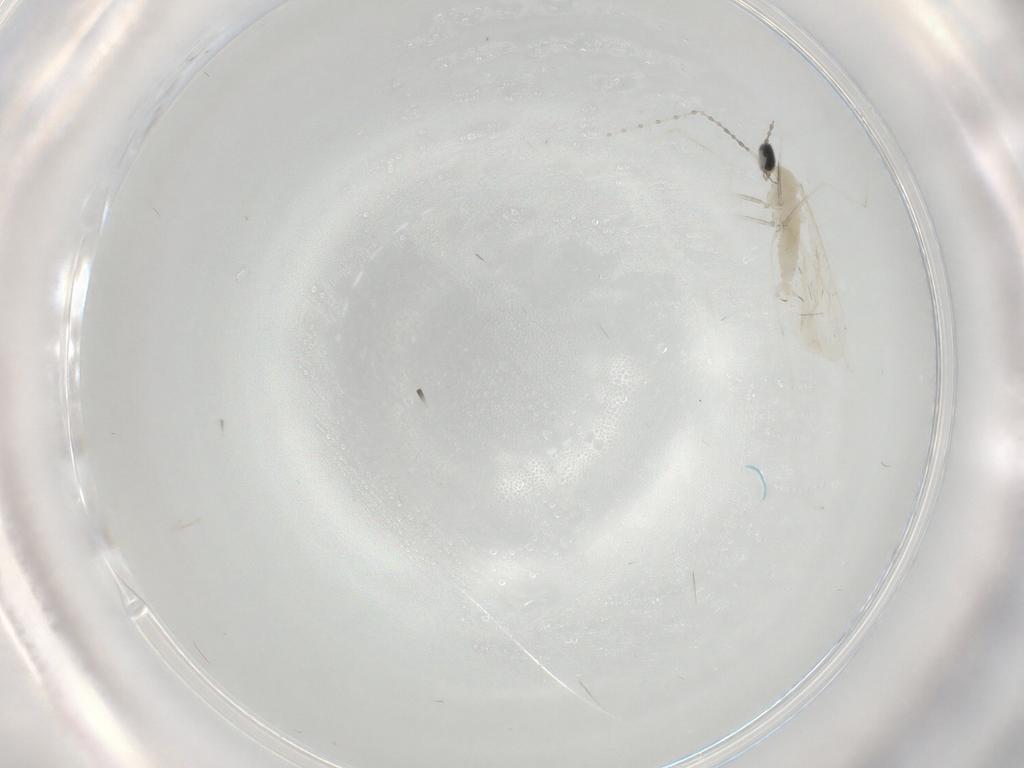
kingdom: Animalia
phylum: Arthropoda
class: Insecta
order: Diptera
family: Cecidomyiidae
